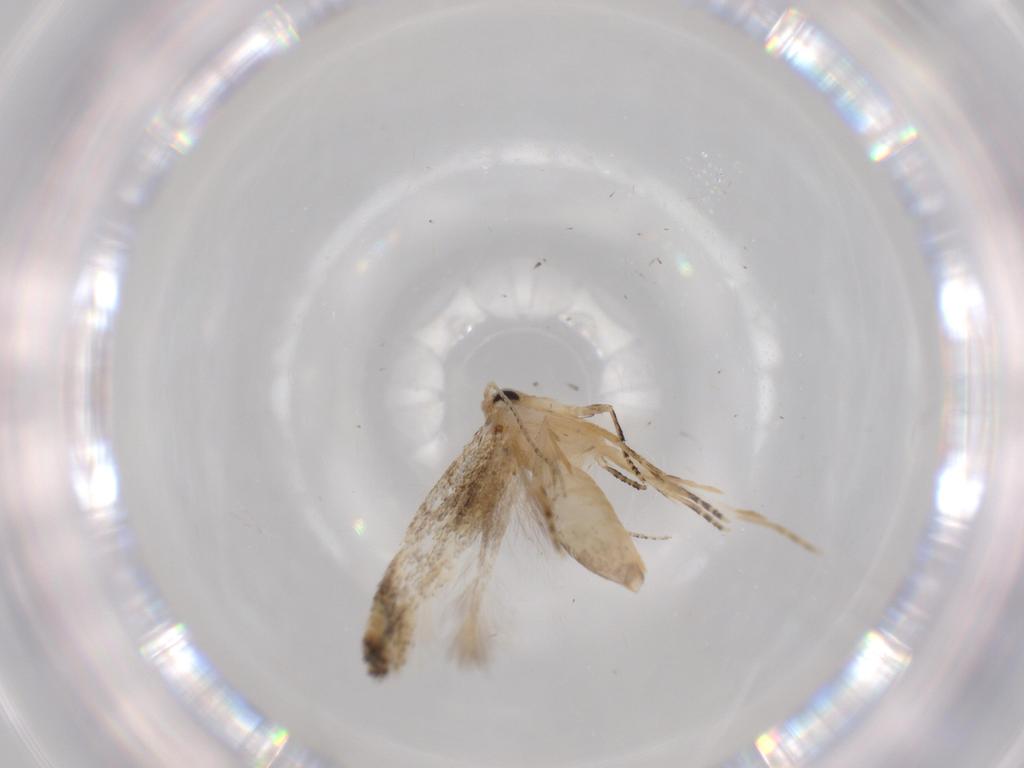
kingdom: Animalia
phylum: Arthropoda
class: Insecta
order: Lepidoptera
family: Bucculatricidae
